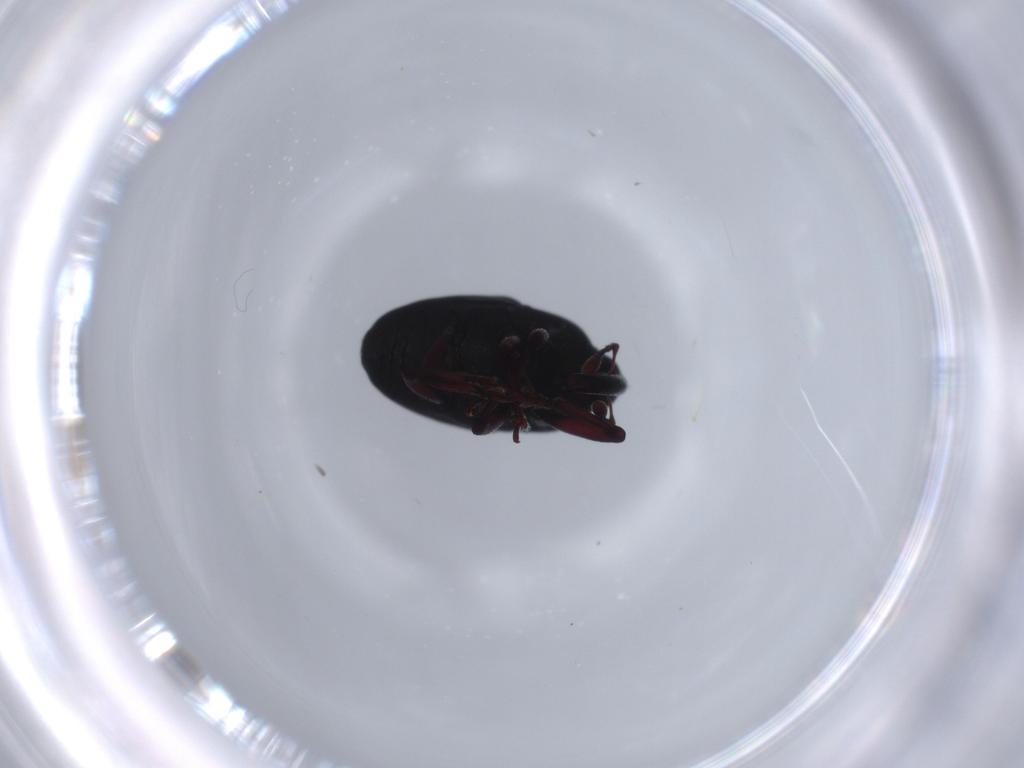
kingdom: Animalia
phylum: Arthropoda
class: Insecta
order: Coleoptera
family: Curculionidae
